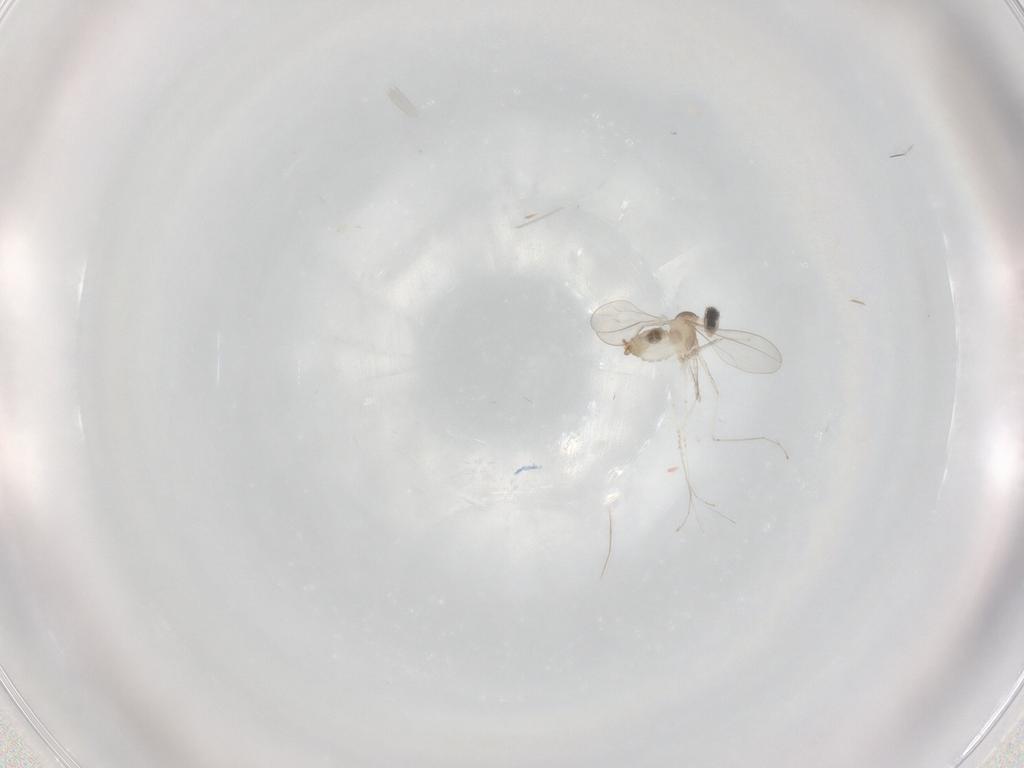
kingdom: Animalia
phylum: Arthropoda
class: Insecta
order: Diptera
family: Cecidomyiidae
